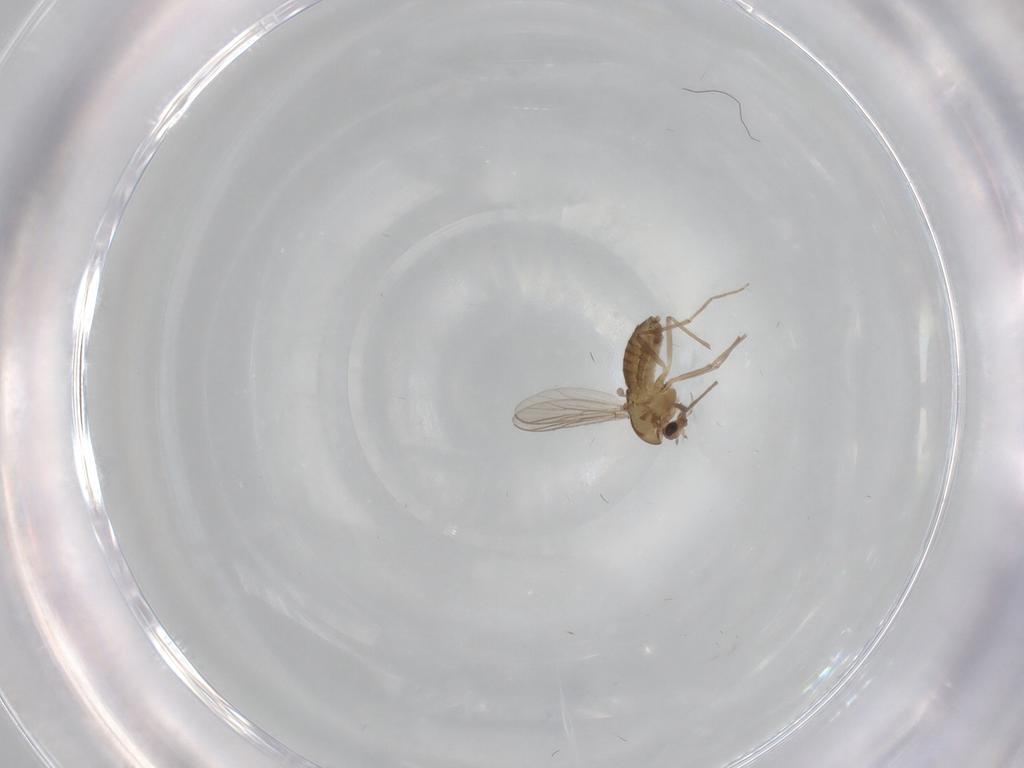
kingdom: Animalia
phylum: Arthropoda
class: Insecta
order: Diptera
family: Chironomidae
